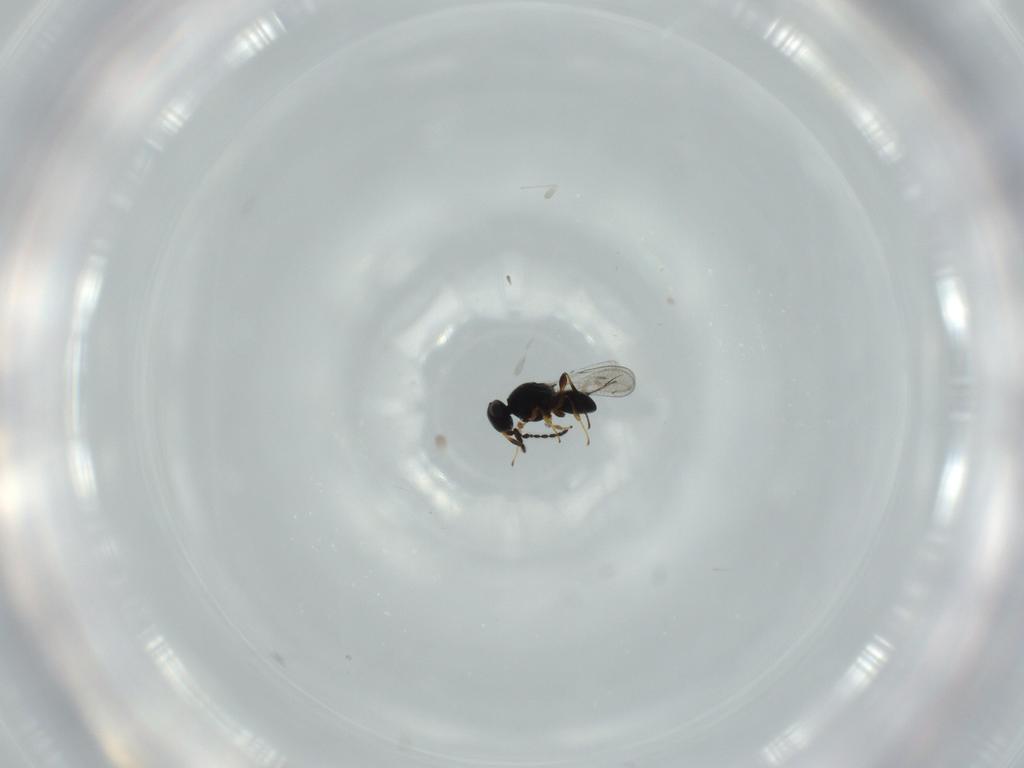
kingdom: Animalia
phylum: Arthropoda
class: Insecta
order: Hymenoptera
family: Platygastridae
